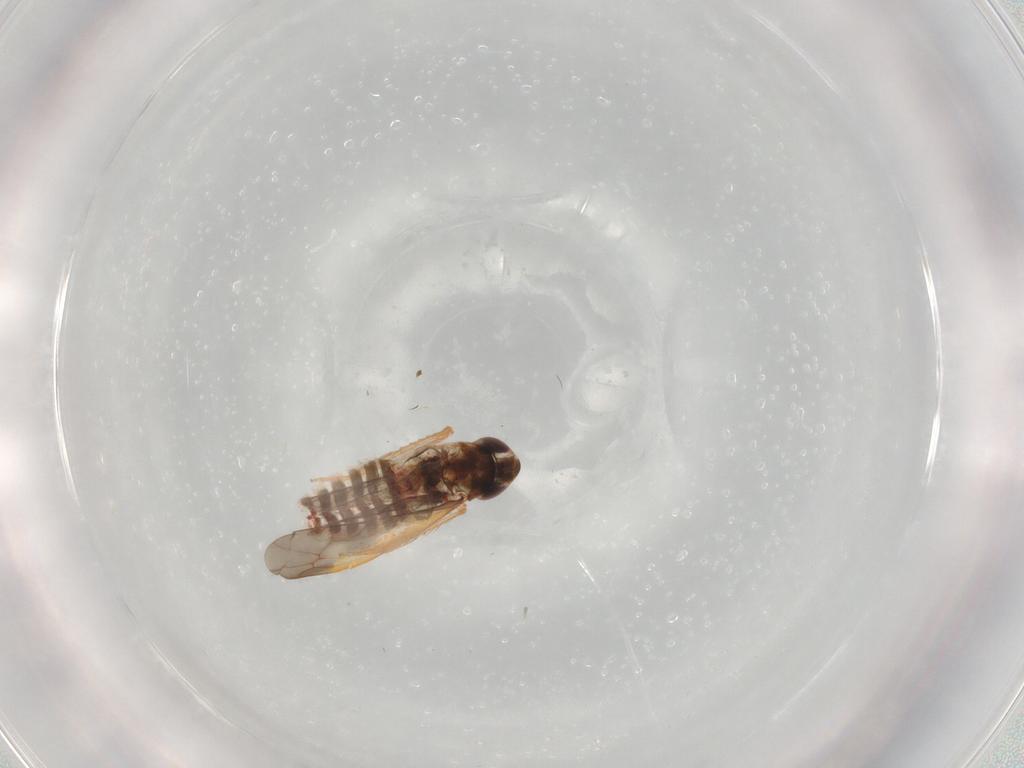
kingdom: Animalia
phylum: Arthropoda
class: Insecta
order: Hemiptera
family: Cicadellidae
